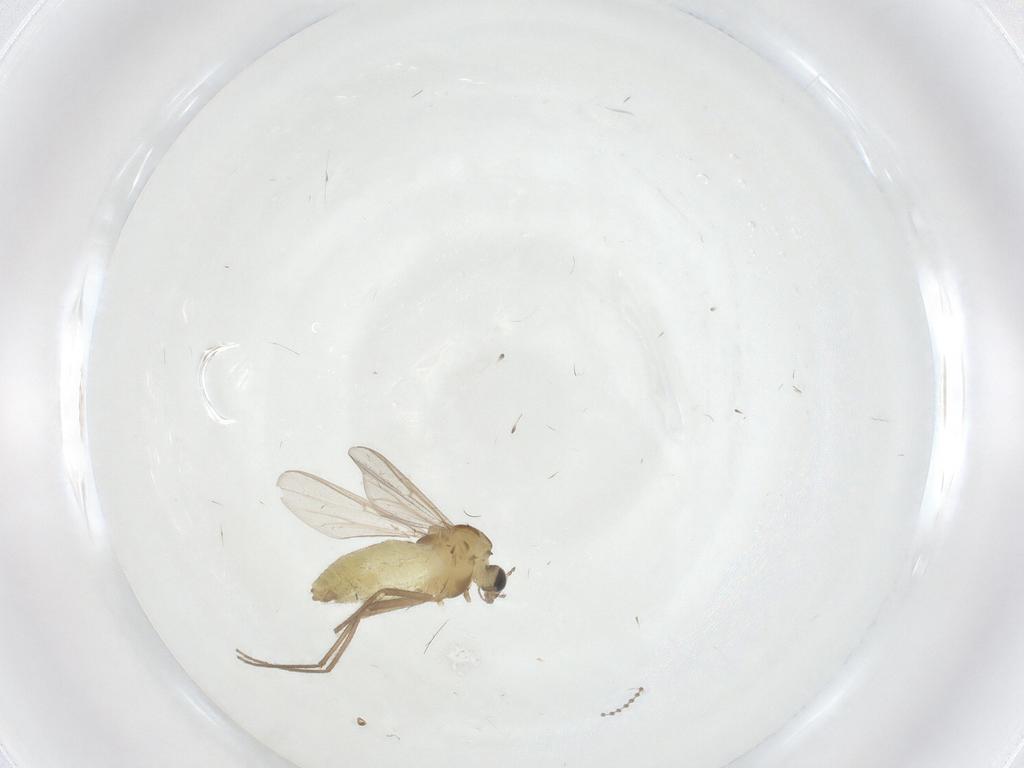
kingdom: Animalia
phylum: Arthropoda
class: Insecta
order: Diptera
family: Chironomidae
